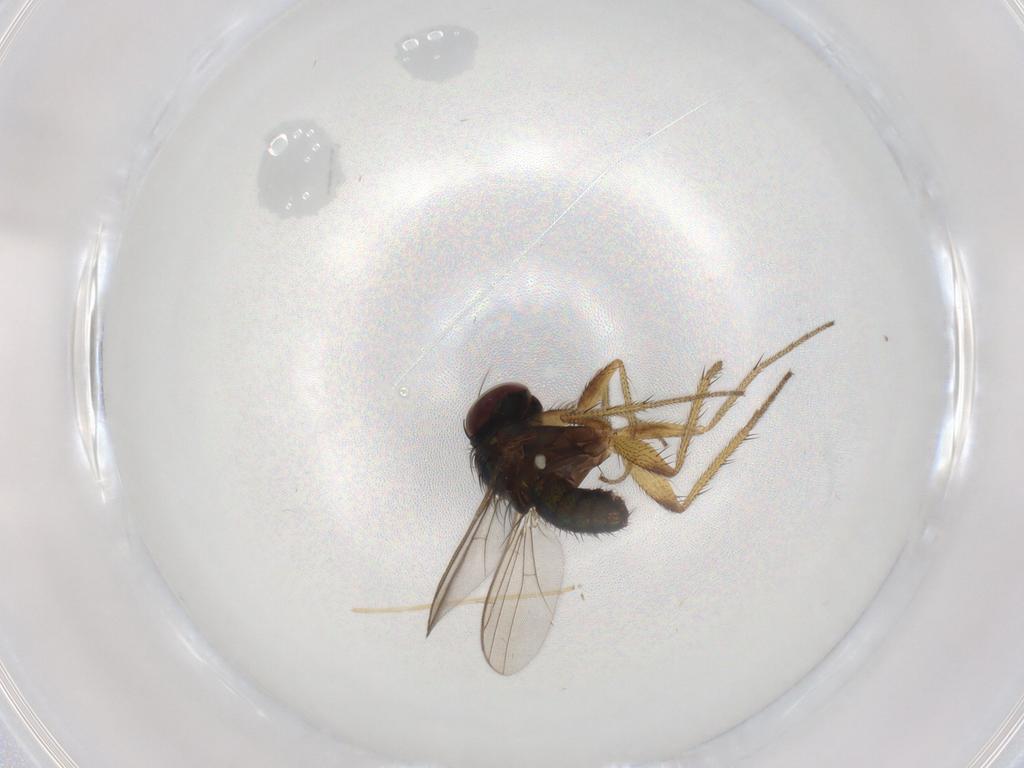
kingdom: Animalia
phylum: Arthropoda
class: Insecta
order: Diptera
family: Chironomidae
